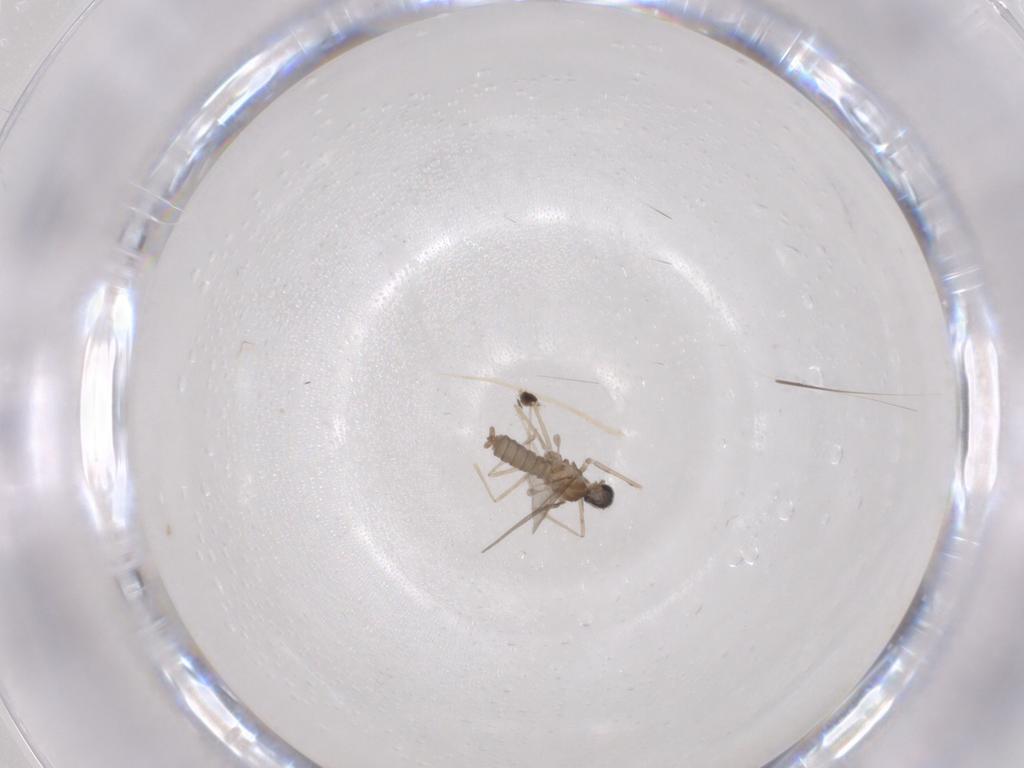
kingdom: Animalia
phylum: Arthropoda
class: Insecta
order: Diptera
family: Cecidomyiidae
